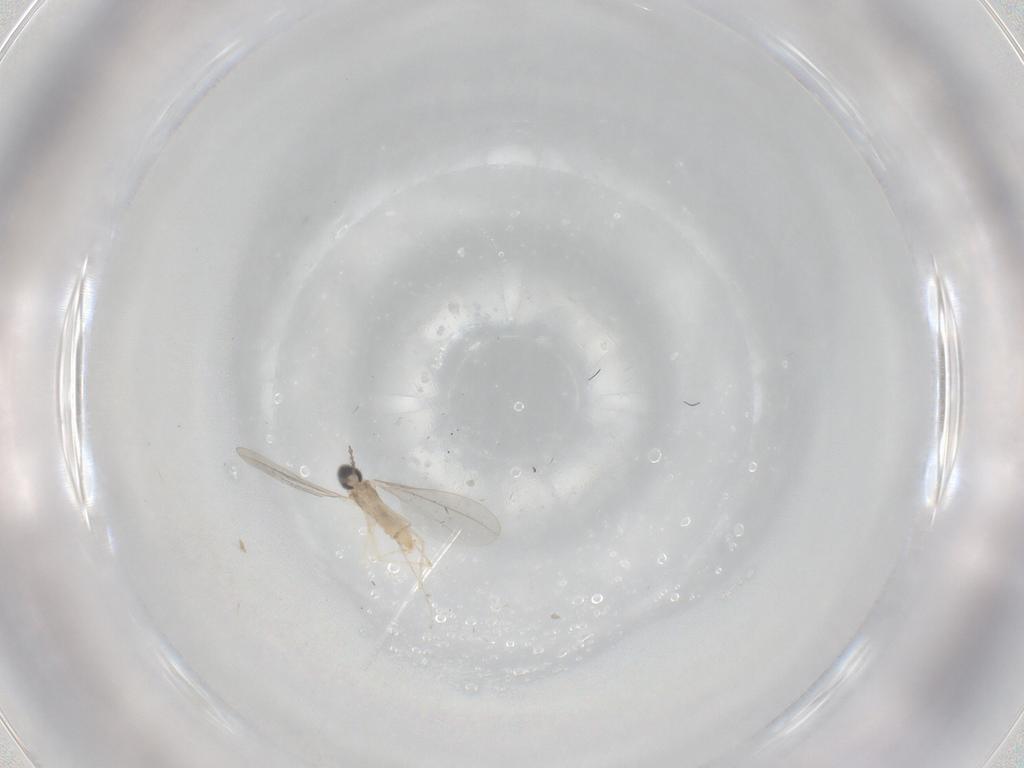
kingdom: Animalia
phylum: Arthropoda
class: Insecta
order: Diptera
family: Cecidomyiidae
